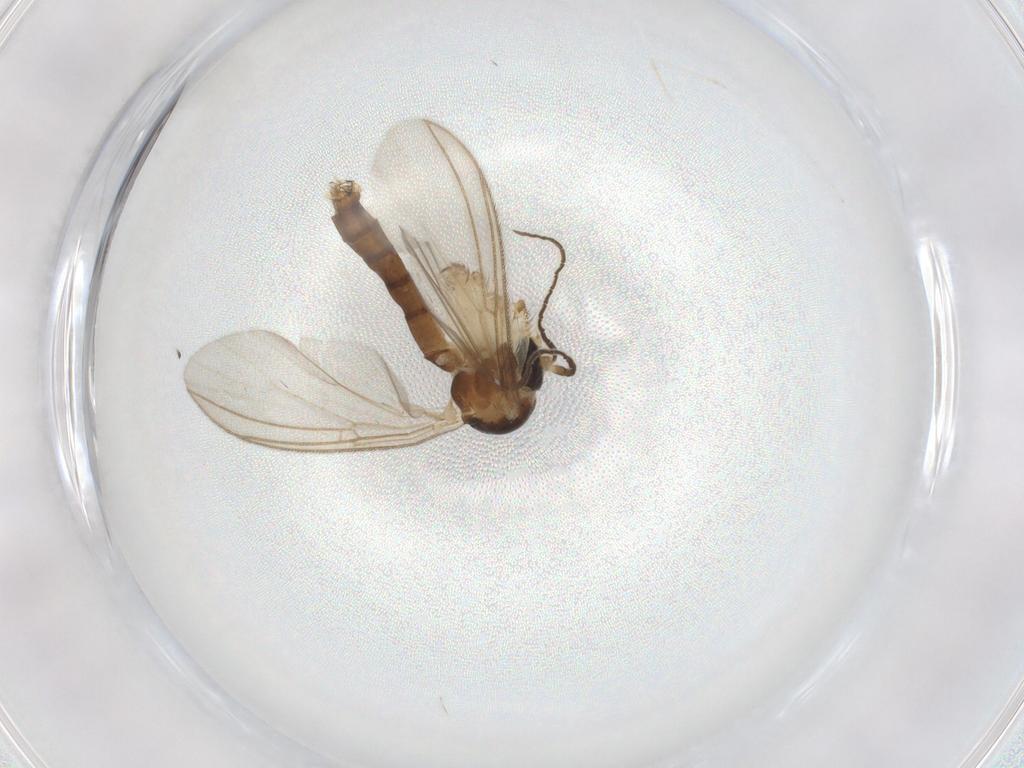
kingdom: Animalia
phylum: Arthropoda
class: Insecta
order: Diptera
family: Mycetophilidae
